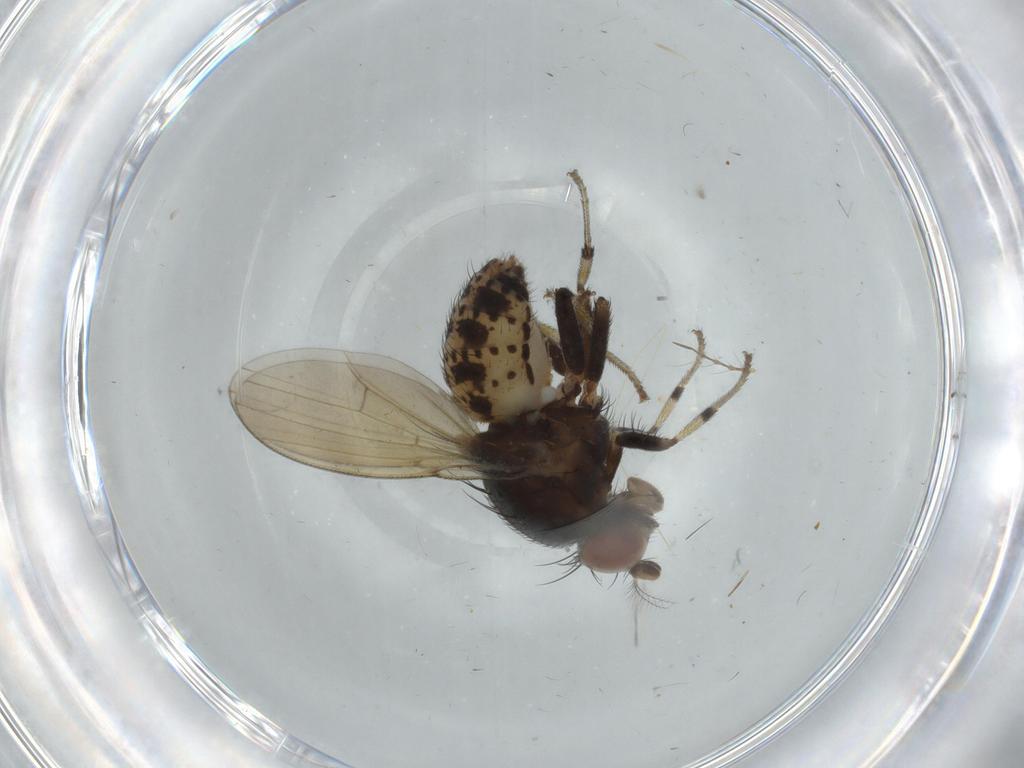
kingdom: Animalia
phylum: Arthropoda
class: Insecta
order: Diptera
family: Chironomidae
